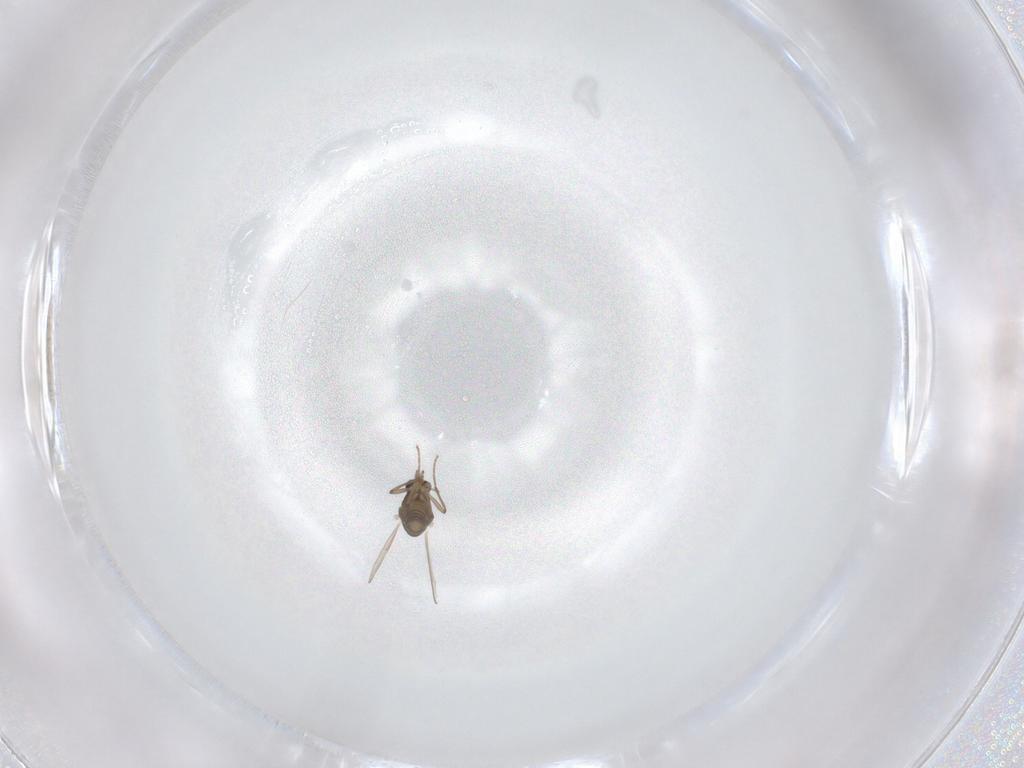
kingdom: Animalia
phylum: Arthropoda
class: Insecta
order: Diptera
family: Chironomidae
